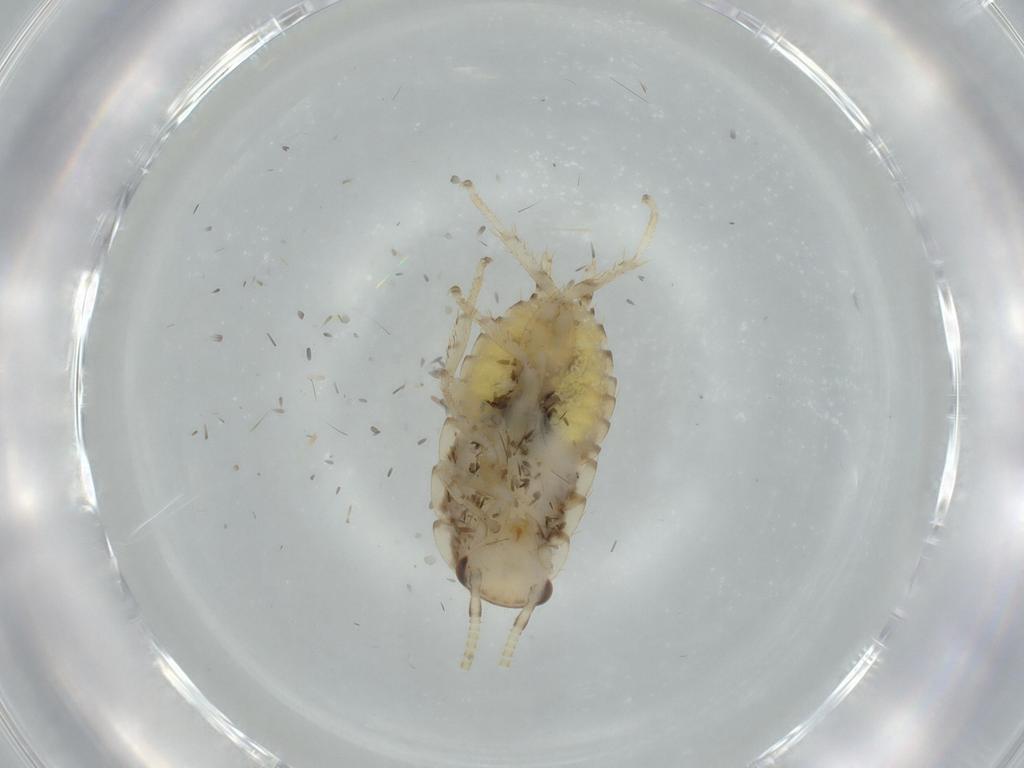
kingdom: Animalia
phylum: Arthropoda
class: Insecta
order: Blattodea
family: Ectobiidae
